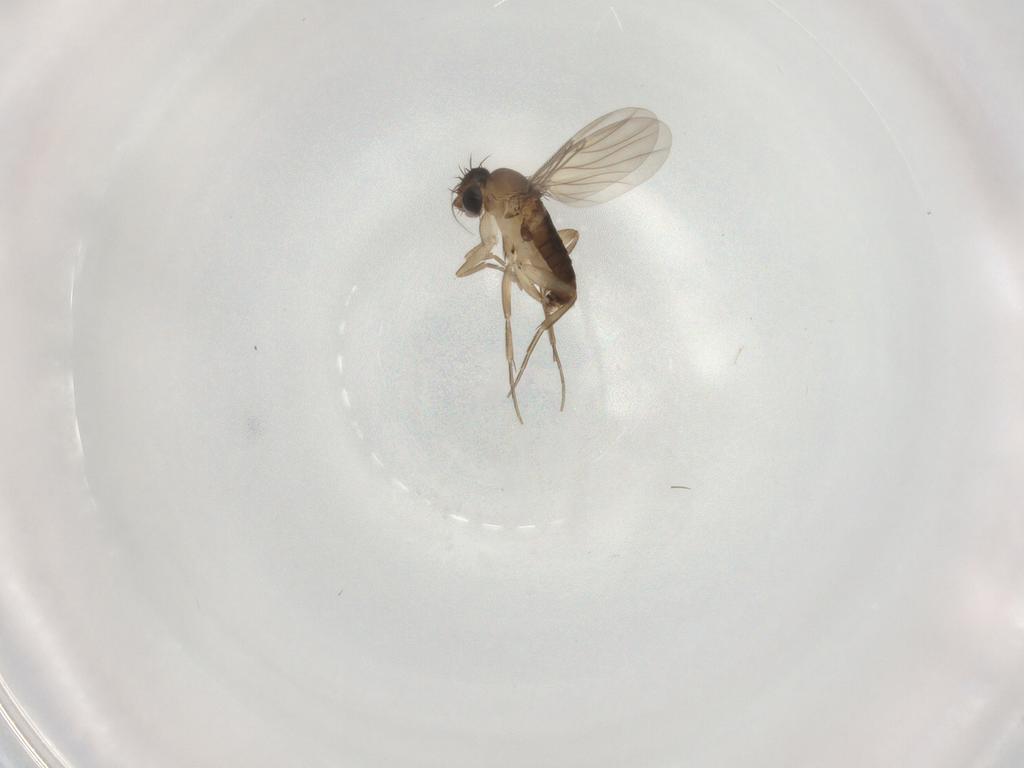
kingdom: Animalia
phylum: Arthropoda
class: Insecta
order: Diptera
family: Phoridae
